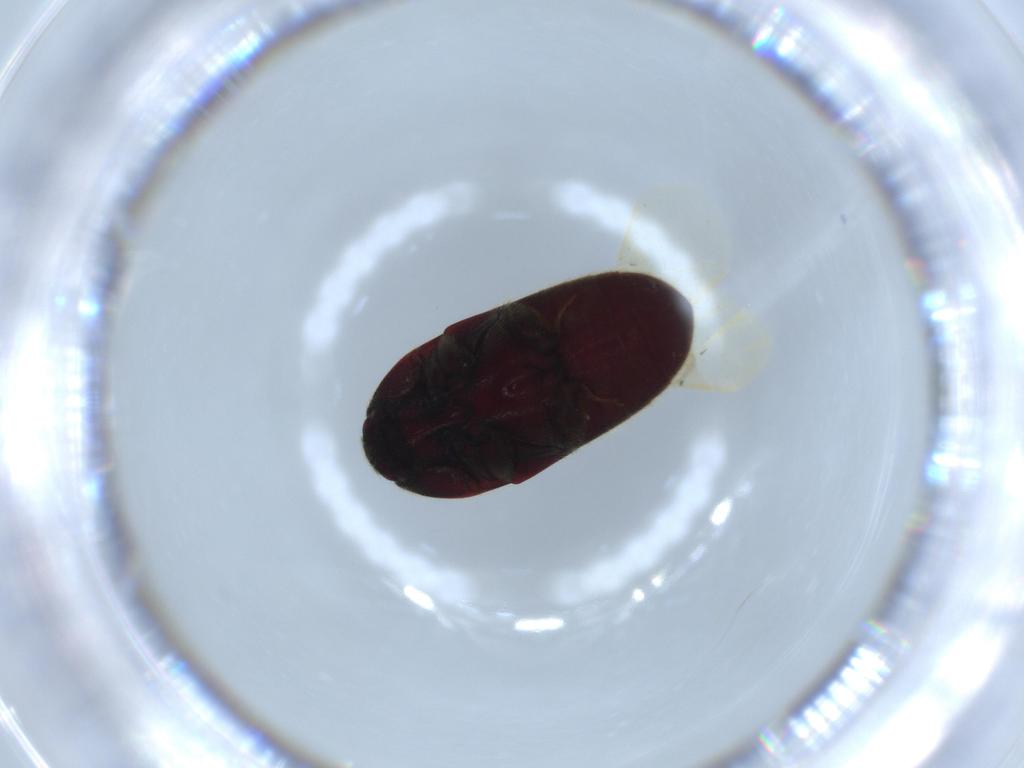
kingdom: Animalia
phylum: Arthropoda
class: Insecta
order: Coleoptera
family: Throscidae
